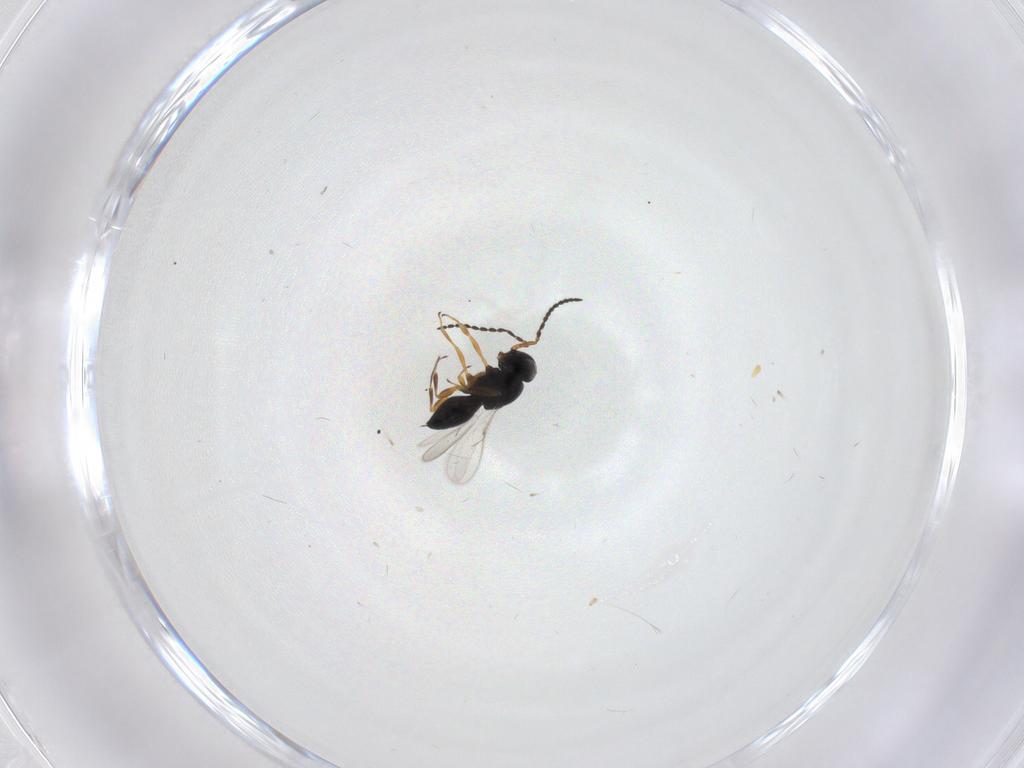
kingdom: Animalia
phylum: Arthropoda
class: Insecta
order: Hymenoptera
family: Scelionidae
